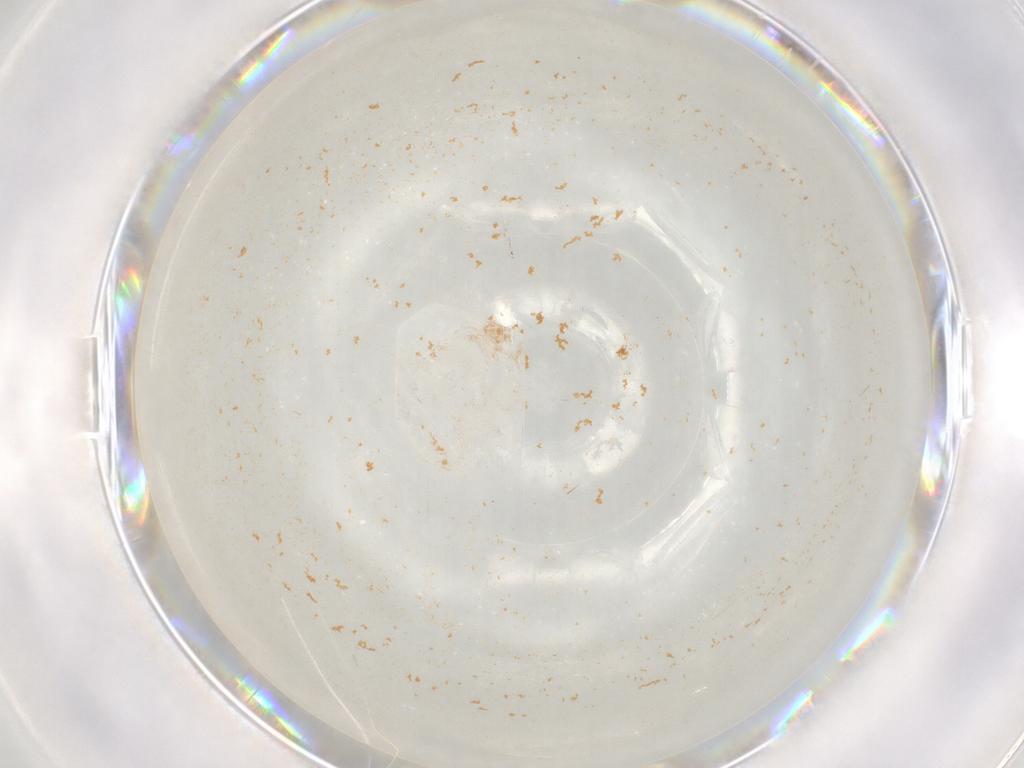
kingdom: Animalia
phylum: Arthropoda
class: Insecta
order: Diptera
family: Cecidomyiidae
